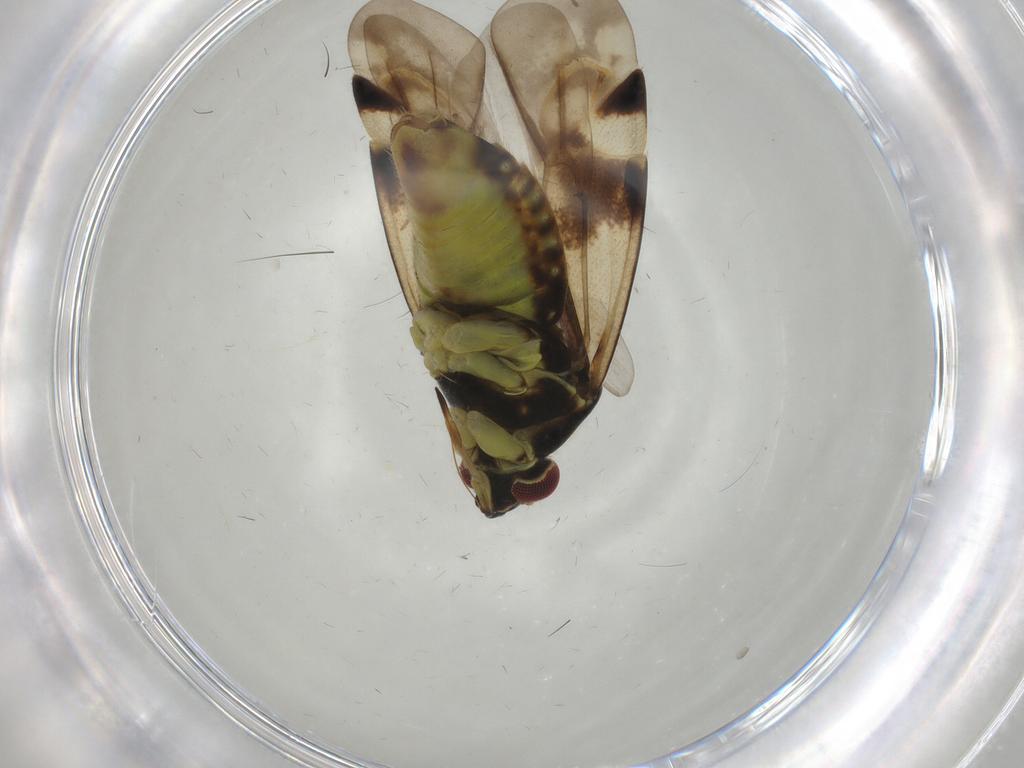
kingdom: Animalia
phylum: Arthropoda
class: Insecta
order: Hemiptera
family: Miridae
